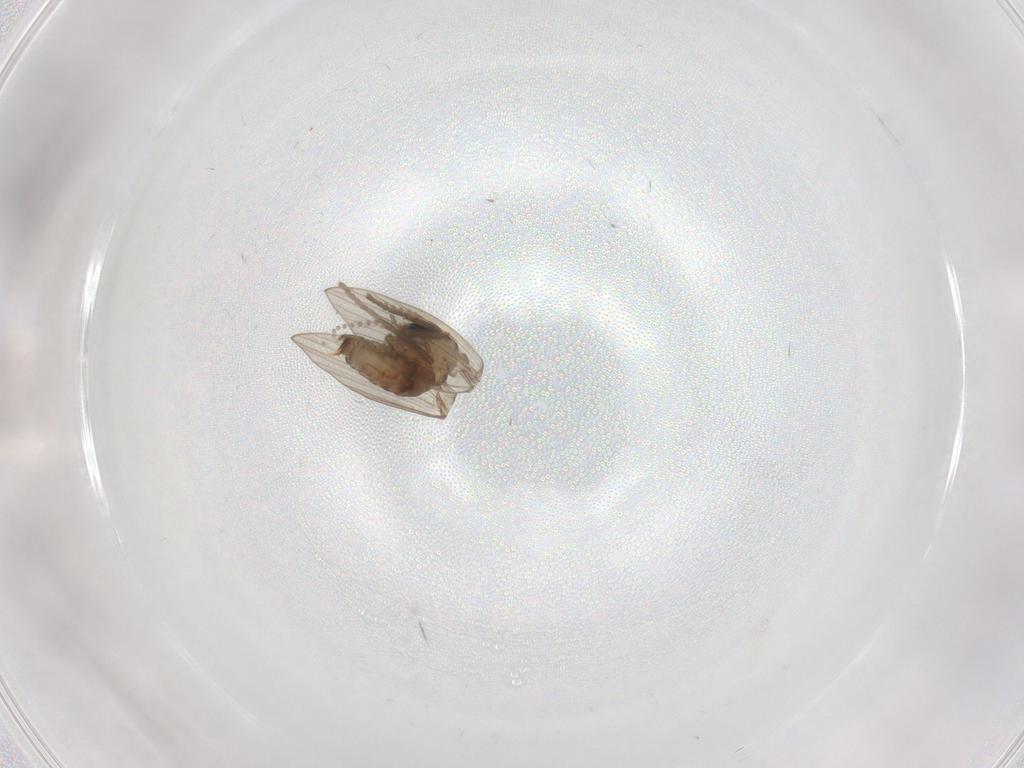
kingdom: Animalia
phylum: Arthropoda
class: Insecta
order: Diptera
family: Psychodidae
